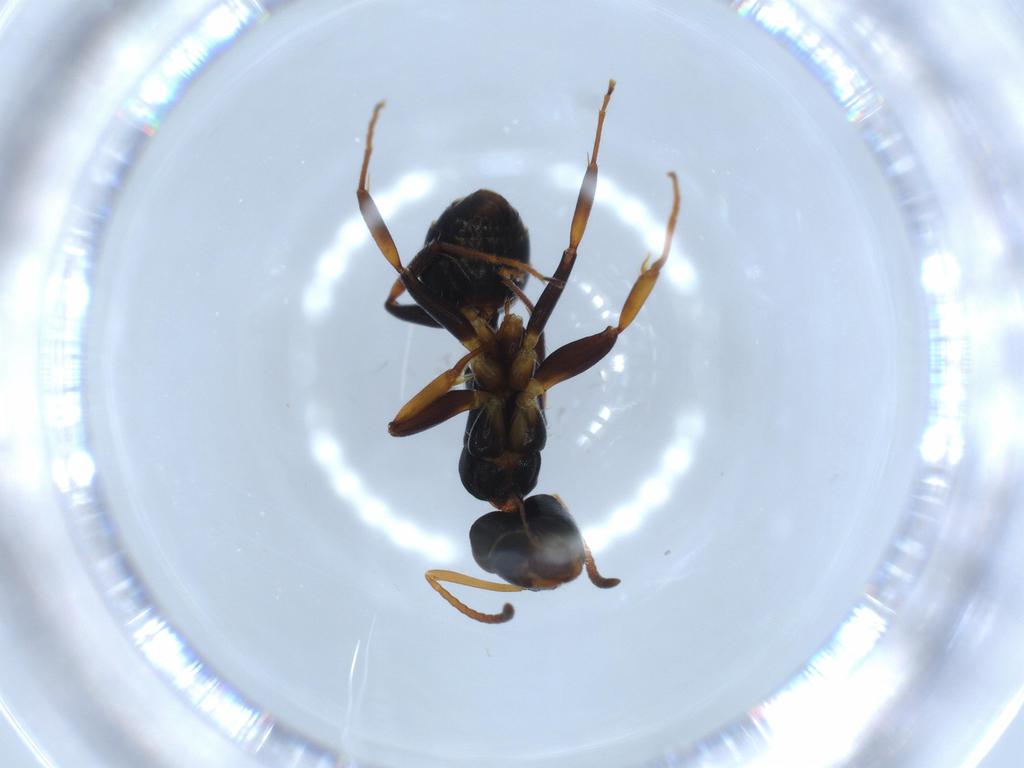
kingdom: Animalia
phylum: Arthropoda
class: Insecta
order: Hymenoptera
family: Formicidae
